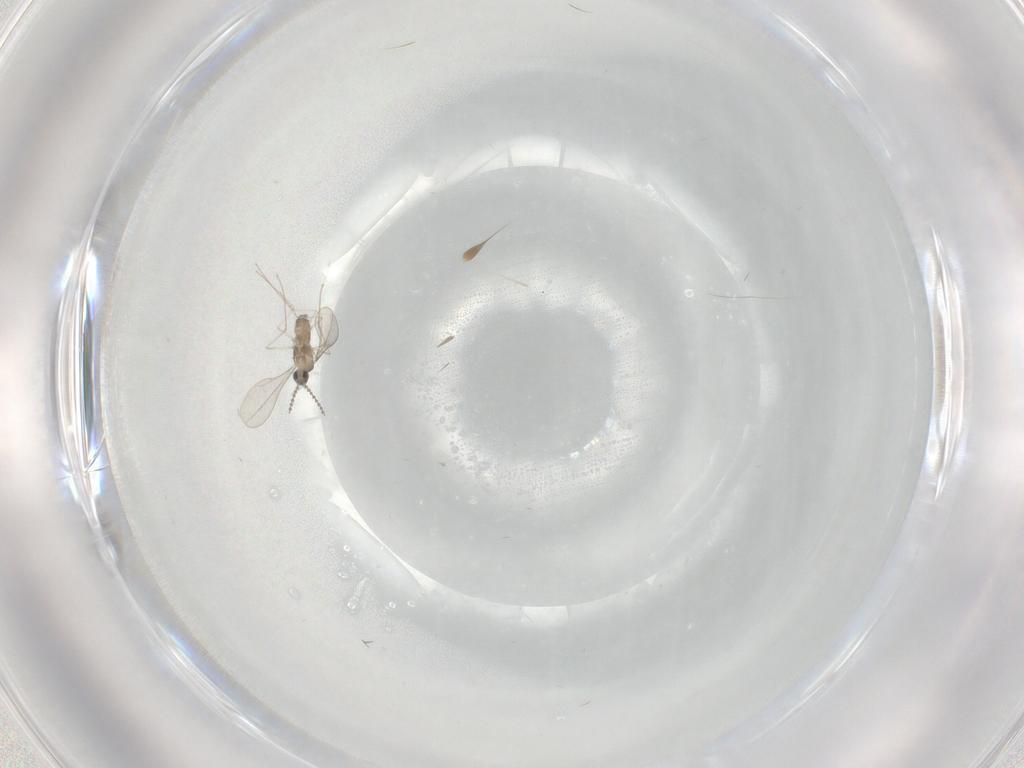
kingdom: Animalia
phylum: Arthropoda
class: Insecta
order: Diptera
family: Cecidomyiidae
